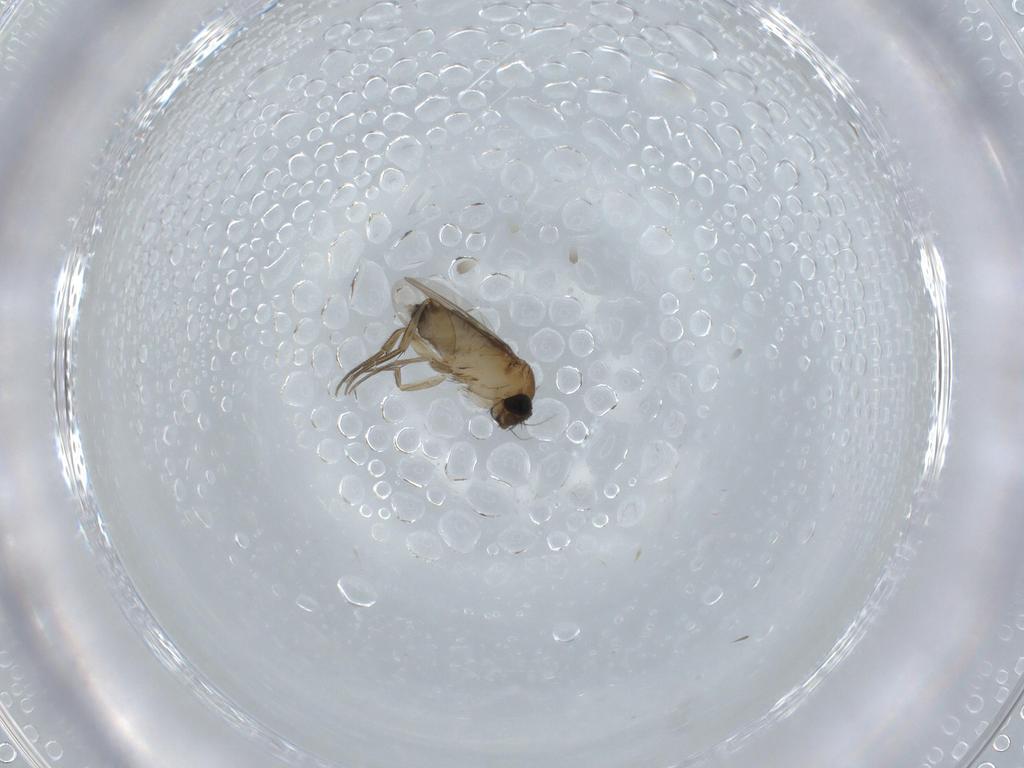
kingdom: Animalia
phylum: Arthropoda
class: Insecta
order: Diptera
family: Phoridae
